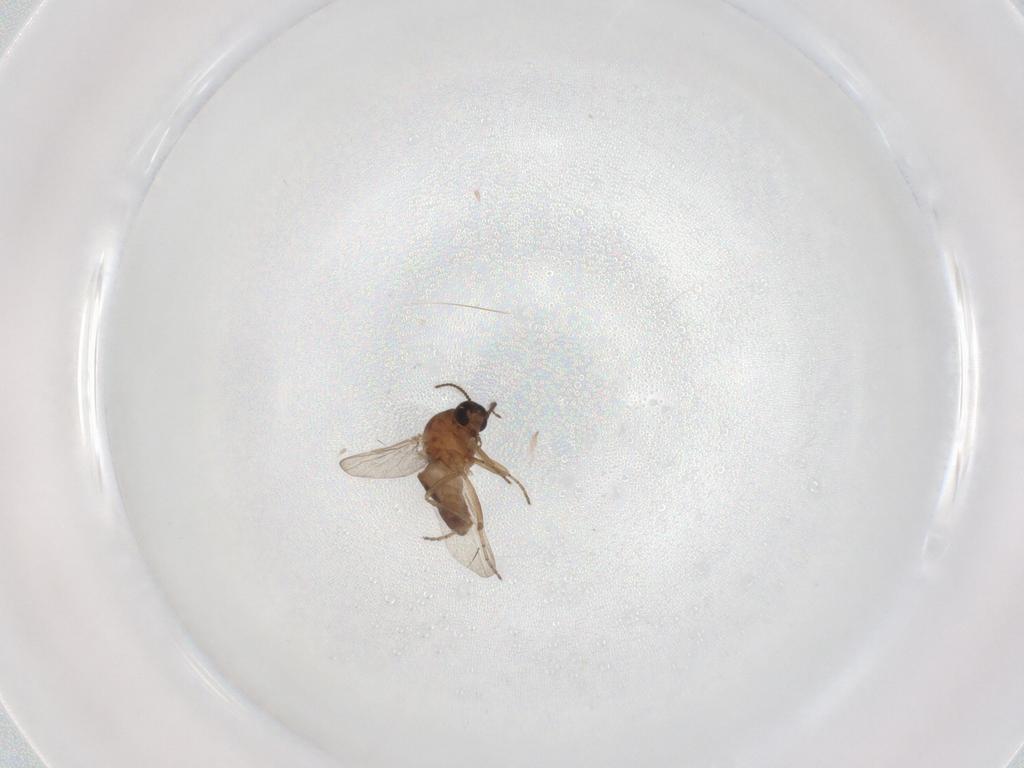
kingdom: Animalia
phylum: Arthropoda
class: Insecta
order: Diptera
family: Ceratopogonidae
